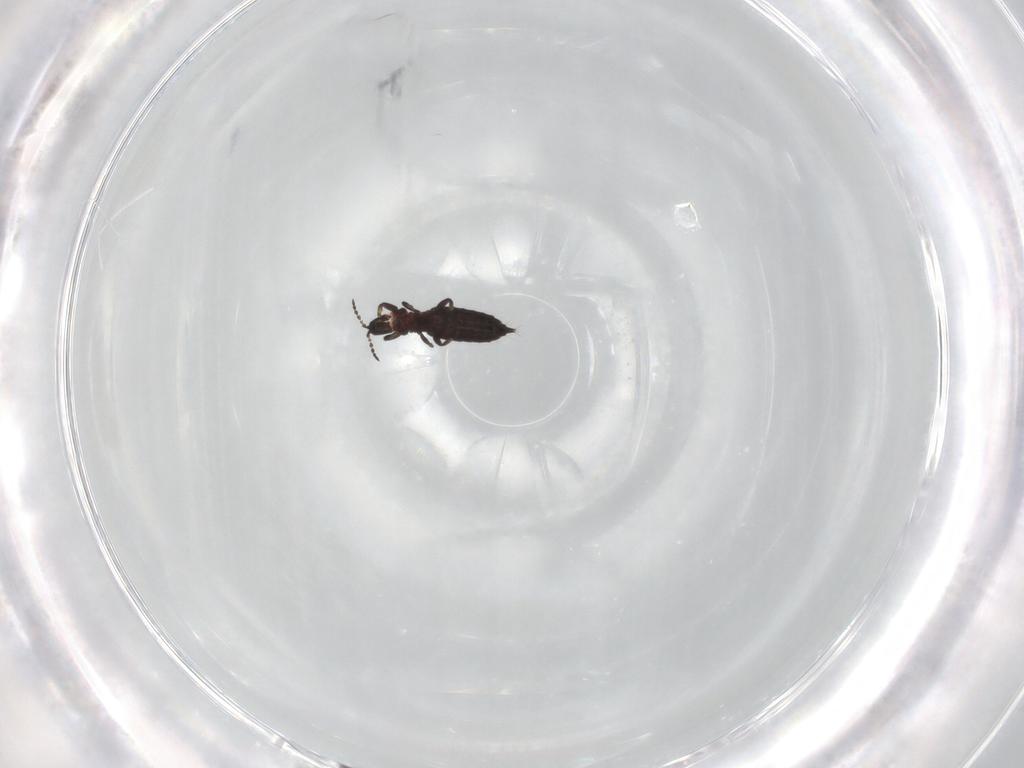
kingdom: Animalia
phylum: Arthropoda
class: Insecta
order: Thysanoptera
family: Phlaeothripidae
